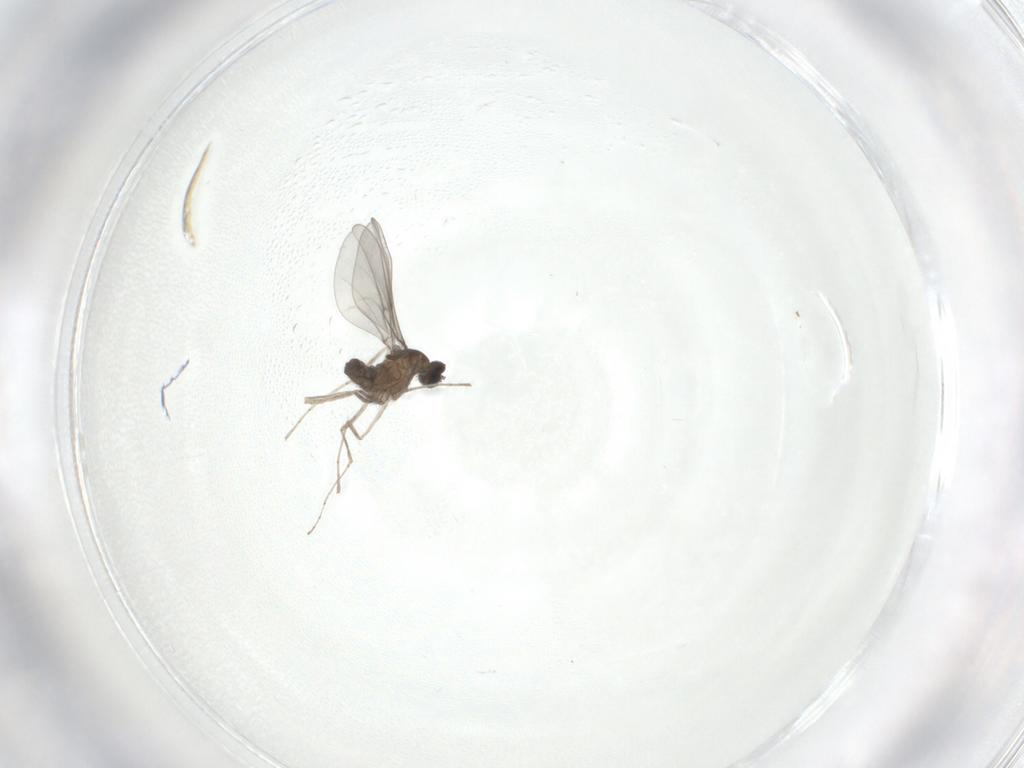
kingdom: Animalia
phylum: Arthropoda
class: Insecta
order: Diptera
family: Cecidomyiidae
